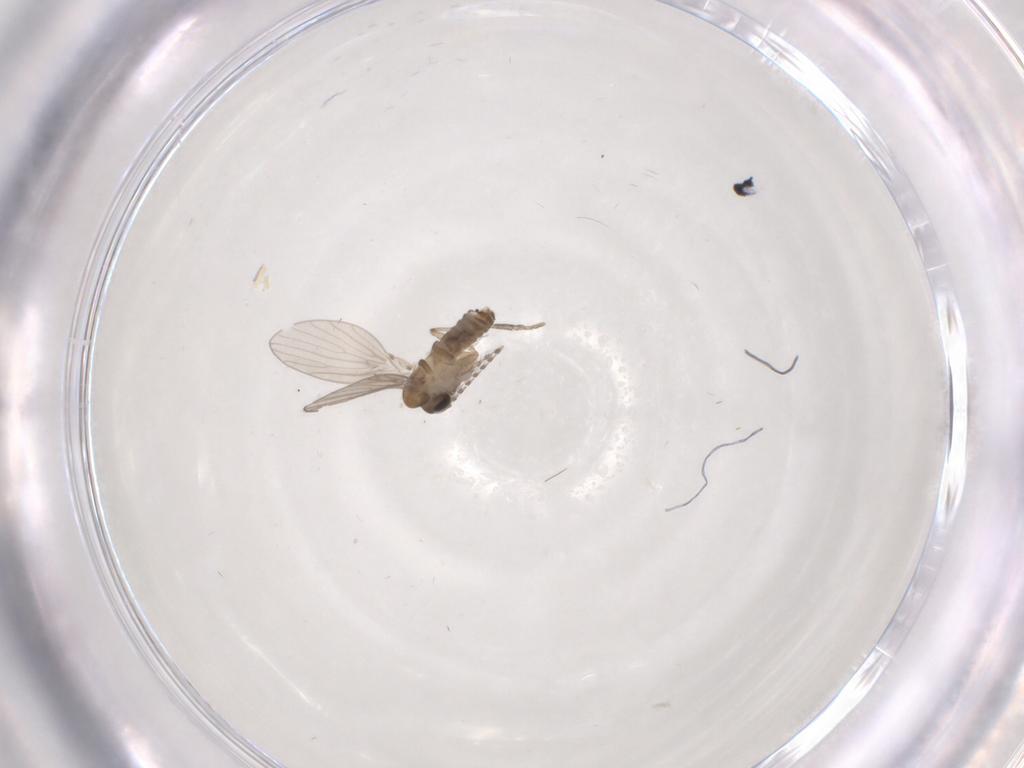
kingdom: Animalia
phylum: Arthropoda
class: Insecta
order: Diptera
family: Psychodidae
